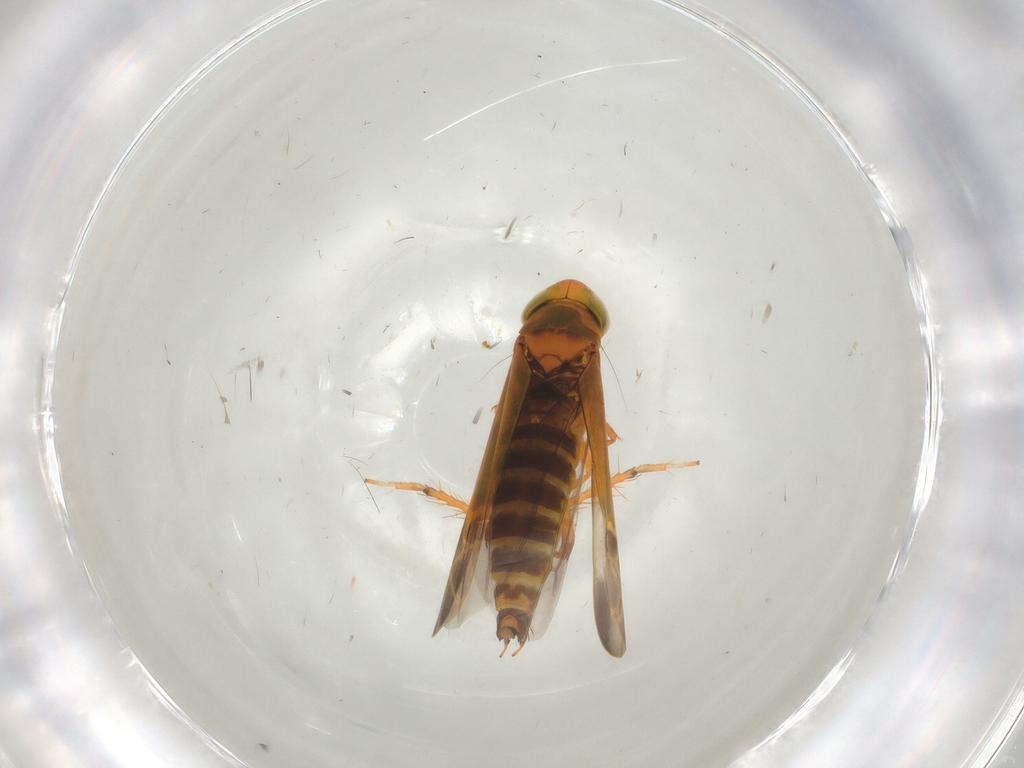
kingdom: Animalia
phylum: Arthropoda
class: Insecta
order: Hemiptera
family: Cicadellidae
